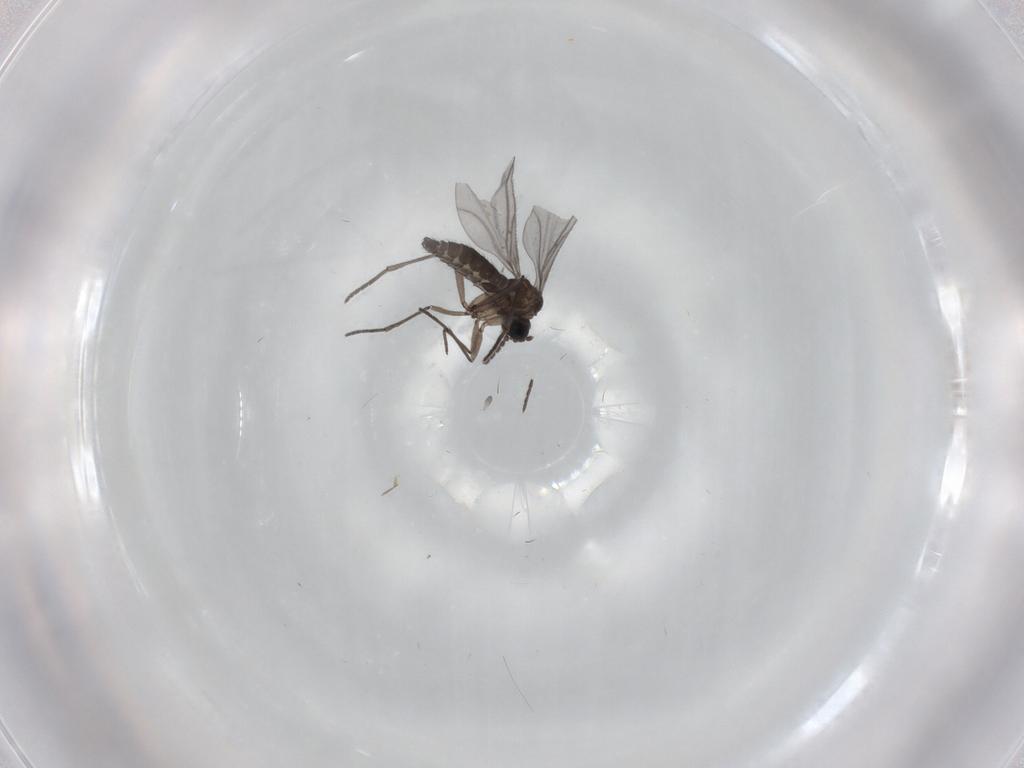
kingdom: Animalia
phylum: Arthropoda
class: Insecta
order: Diptera
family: Sciaridae
